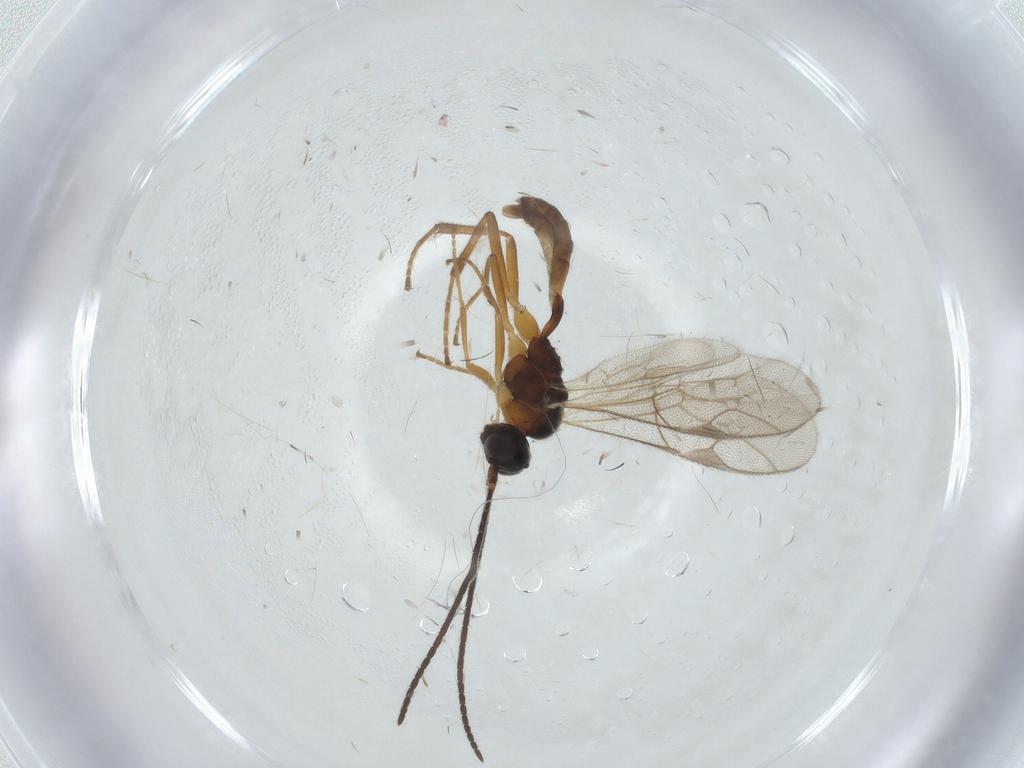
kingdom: Animalia
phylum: Arthropoda
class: Insecta
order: Hymenoptera
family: Ichneumonidae
